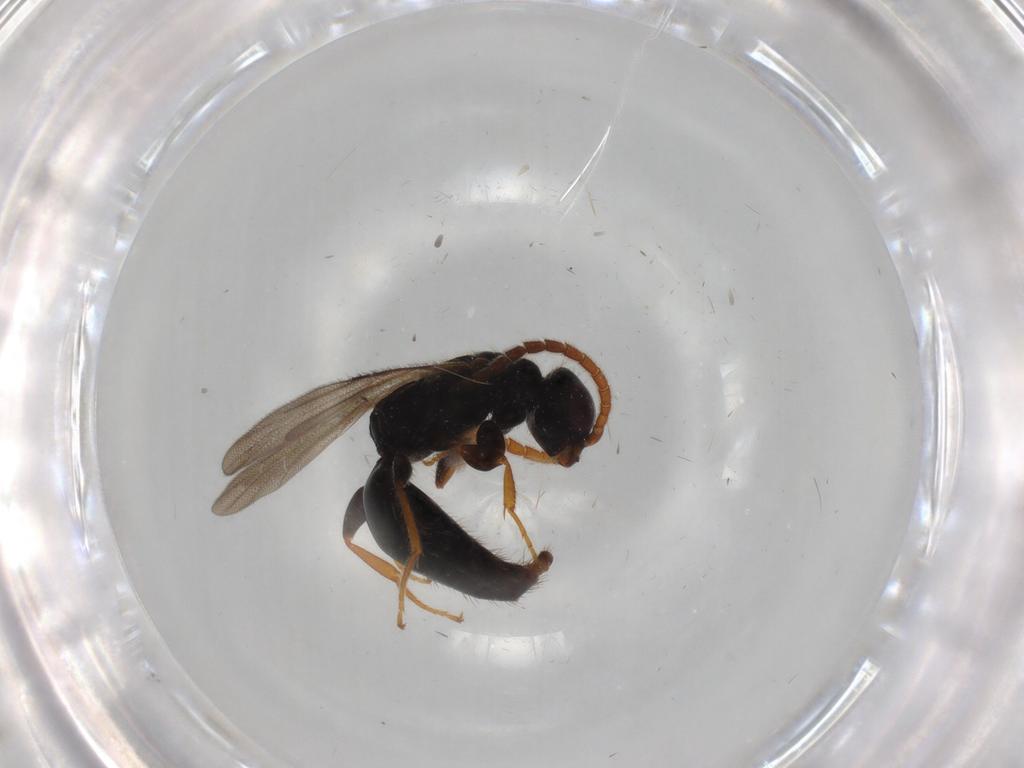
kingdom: Animalia
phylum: Arthropoda
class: Insecta
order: Hymenoptera
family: Bethylidae
